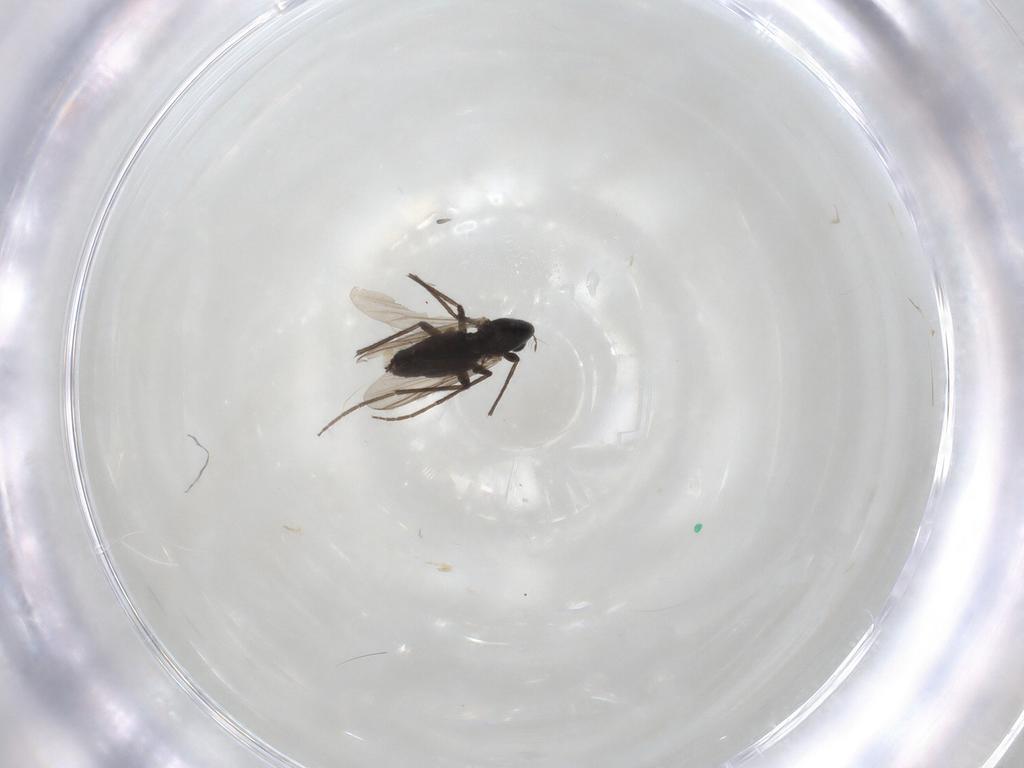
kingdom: Animalia
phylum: Arthropoda
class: Insecta
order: Diptera
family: Chironomidae
